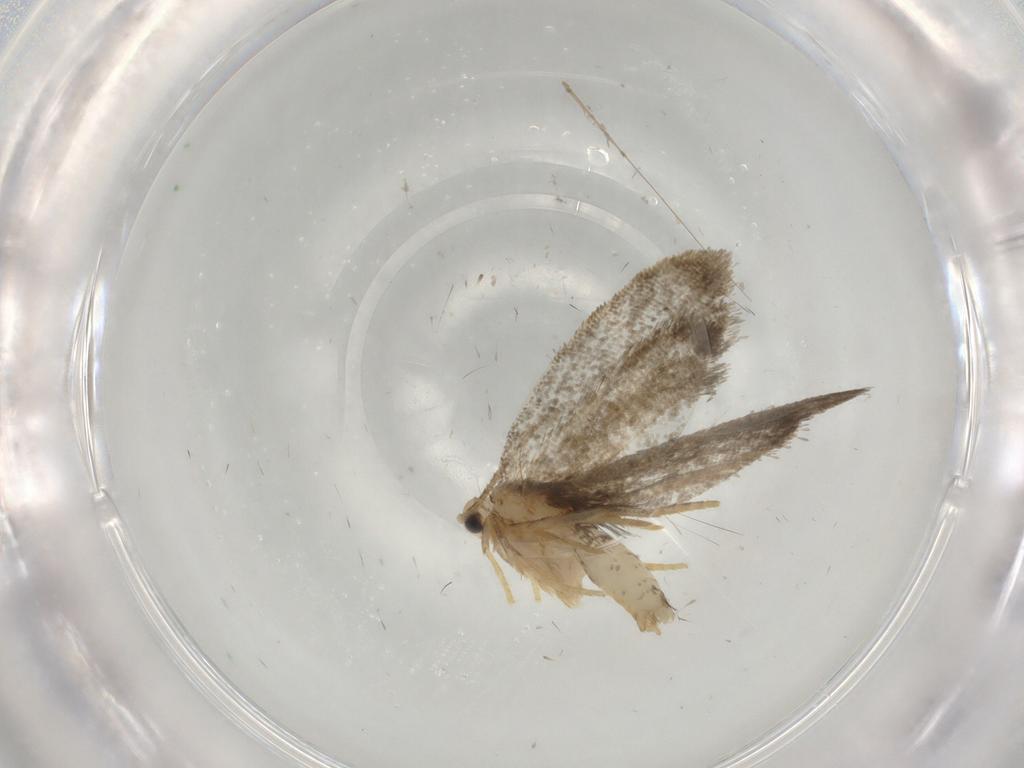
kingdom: Animalia
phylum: Arthropoda
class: Insecta
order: Lepidoptera
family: Psychidae
